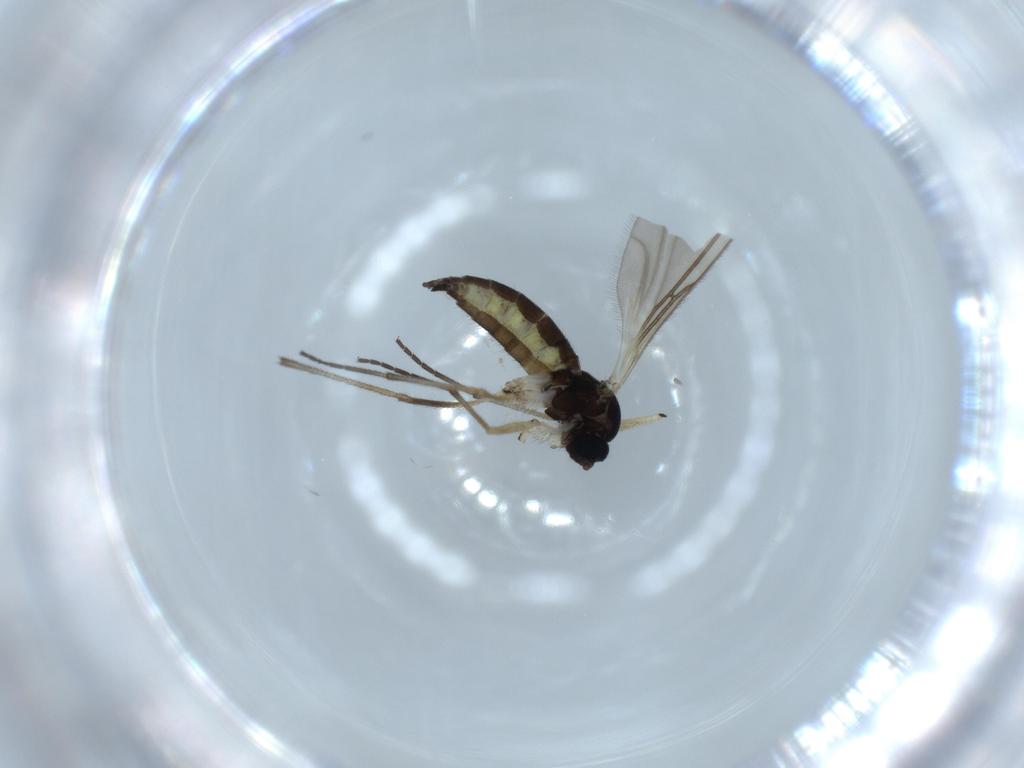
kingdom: Animalia
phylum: Arthropoda
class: Insecta
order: Diptera
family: Sciaridae
